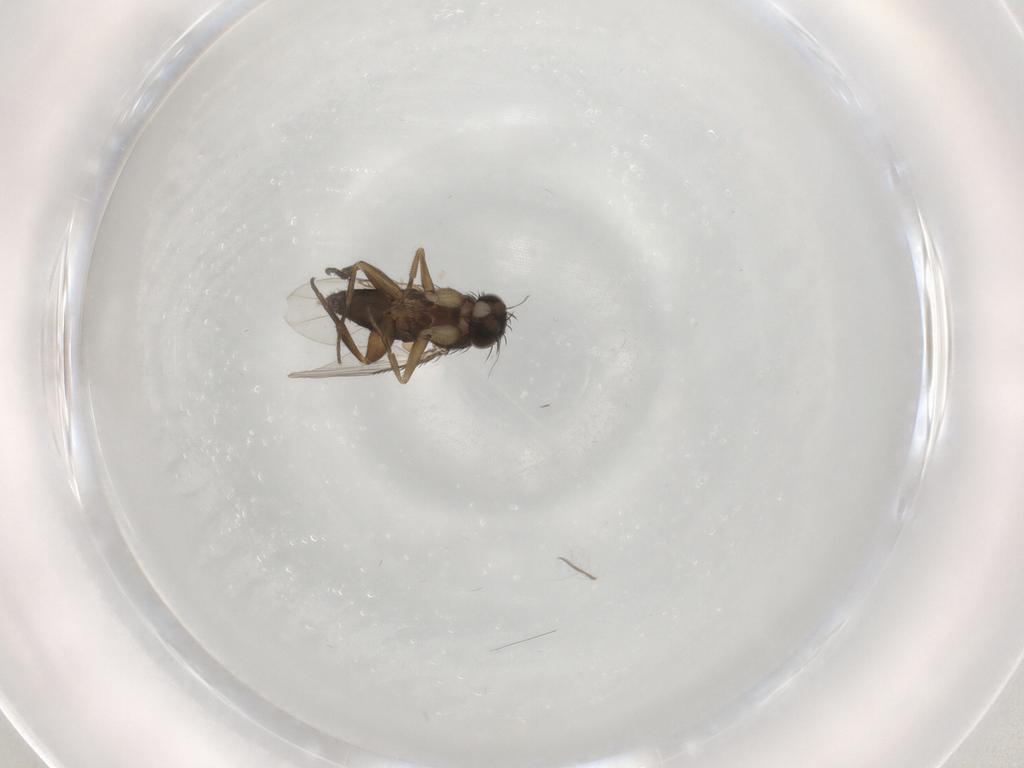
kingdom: Animalia
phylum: Arthropoda
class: Insecta
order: Diptera
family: Phoridae
